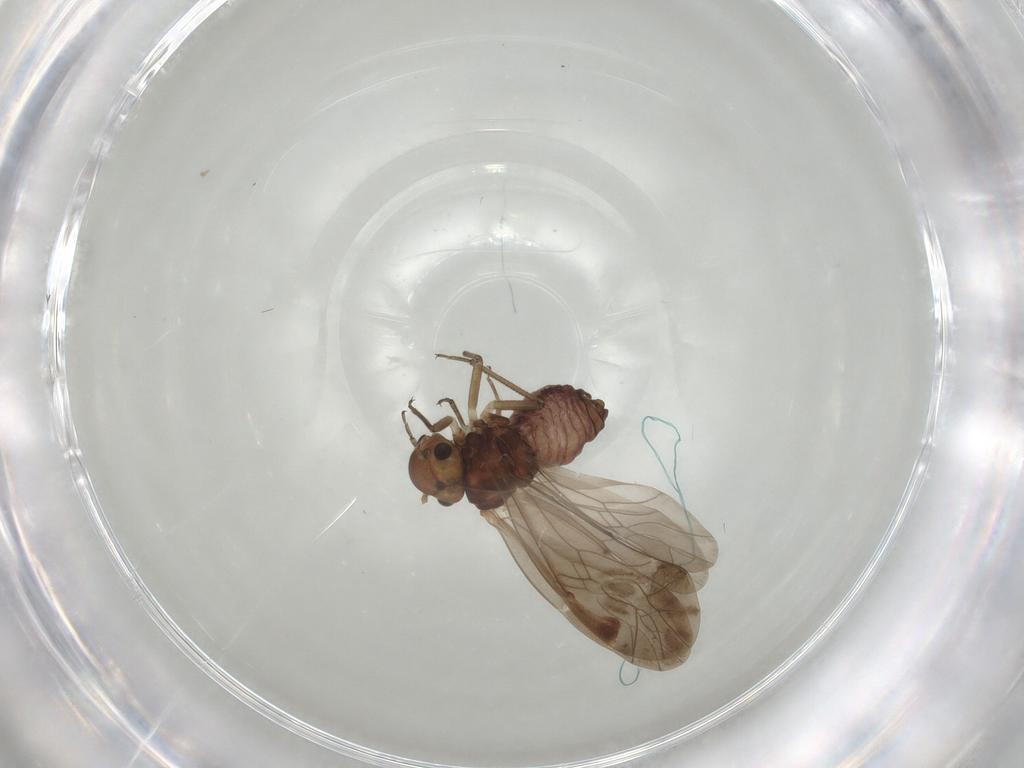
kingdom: Animalia
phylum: Arthropoda
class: Insecta
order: Psocodea
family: Peripsocidae
